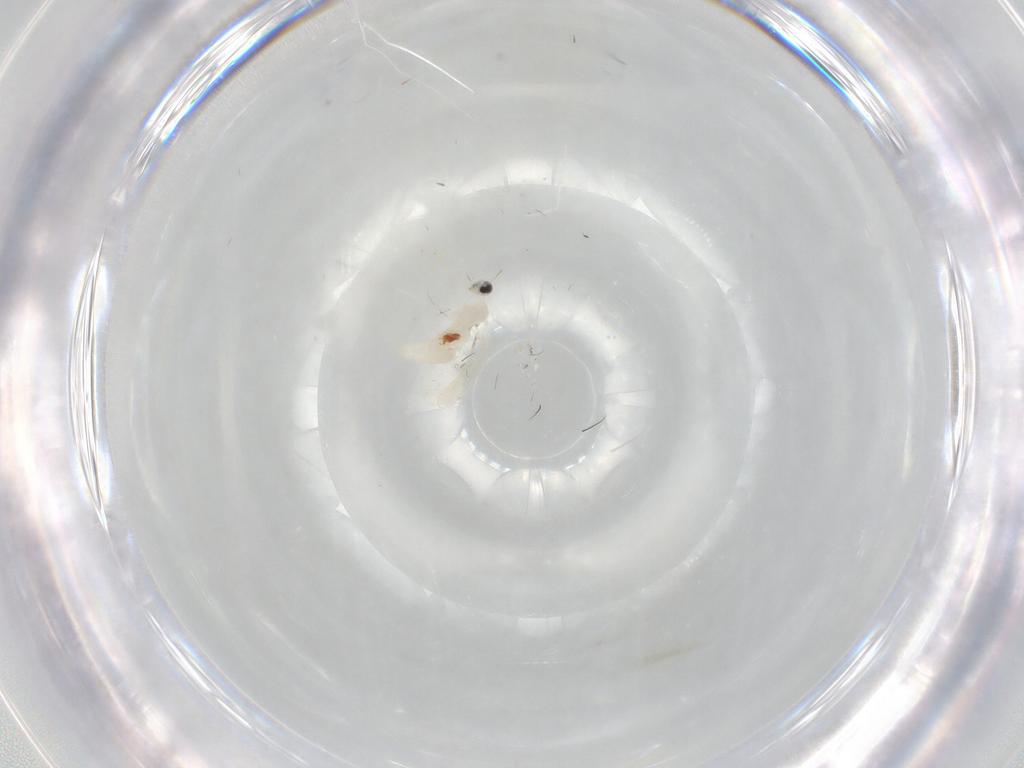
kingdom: Animalia
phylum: Arthropoda
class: Insecta
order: Diptera
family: Cecidomyiidae
